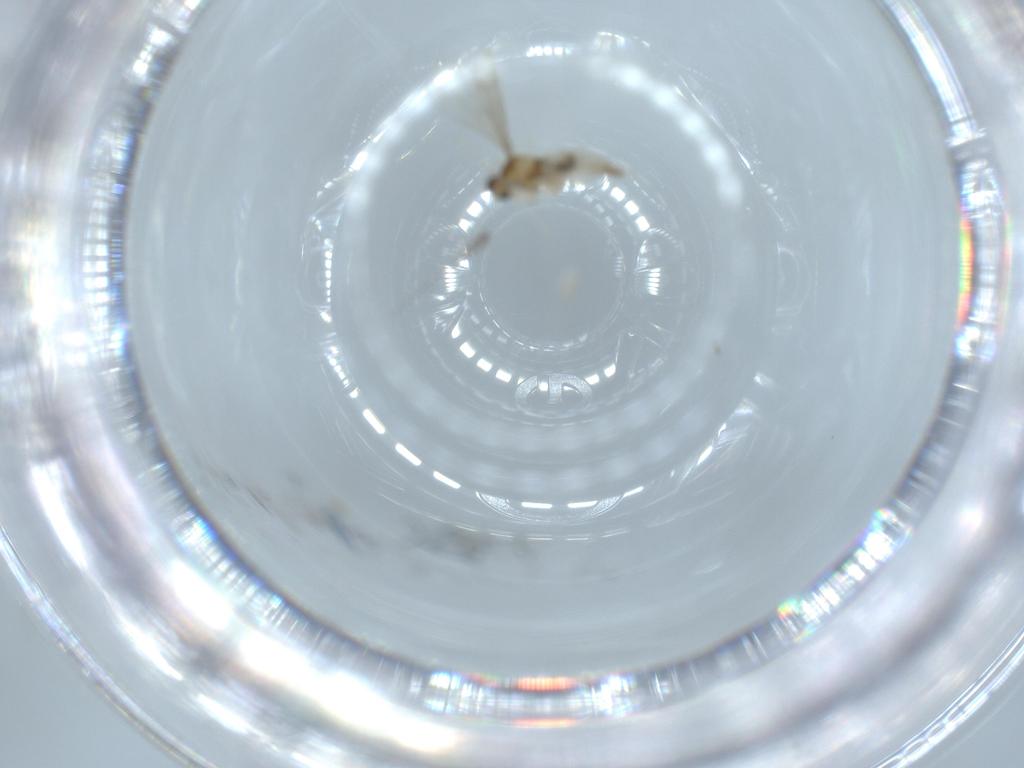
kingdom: Animalia
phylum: Arthropoda
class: Insecta
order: Diptera
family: Cecidomyiidae
